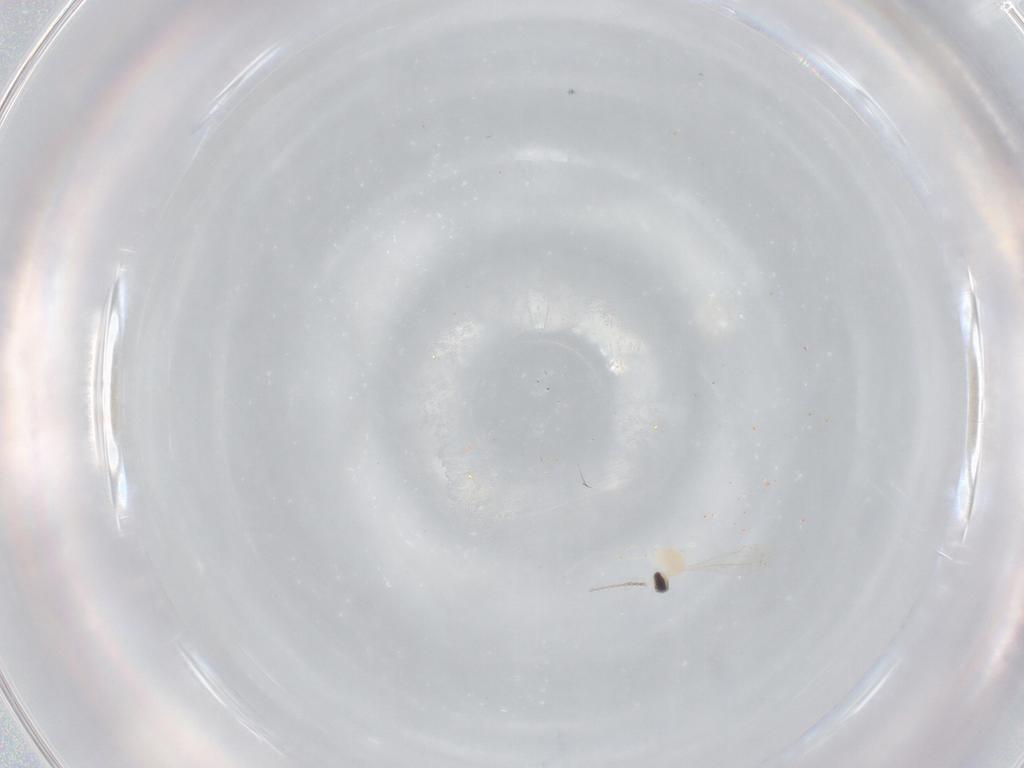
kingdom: Animalia
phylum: Arthropoda
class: Insecta
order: Diptera
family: Cecidomyiidae
